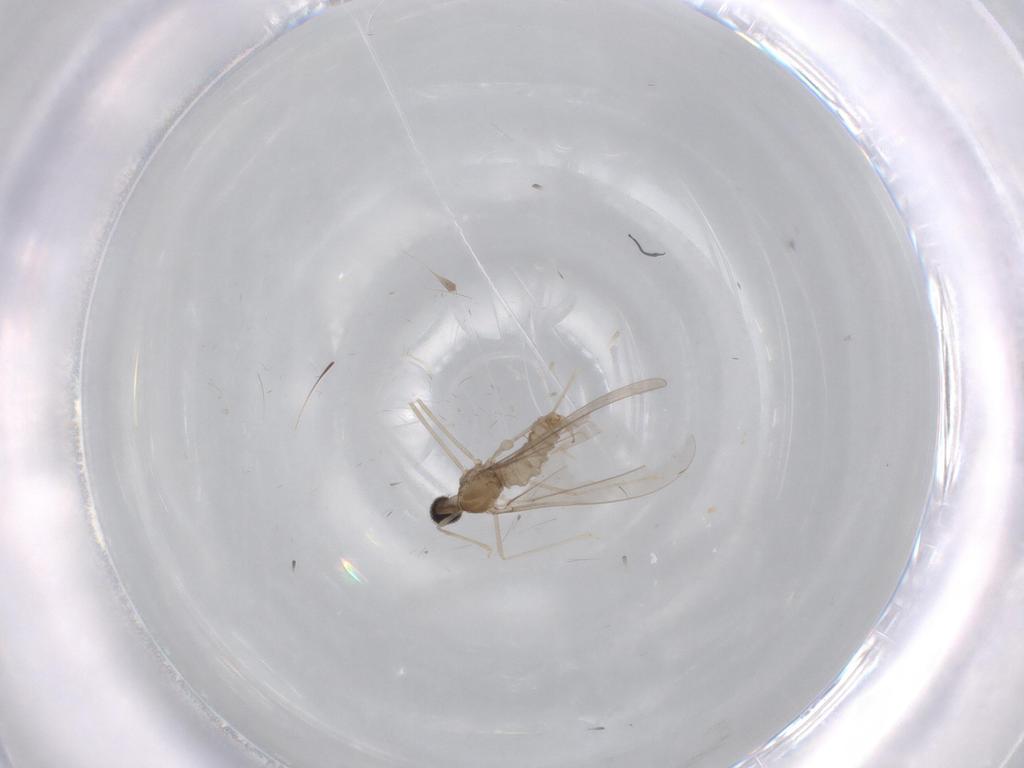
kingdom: Animalia
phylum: Arthropoda
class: Insecta
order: Diptera
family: Cecidomyiidae
